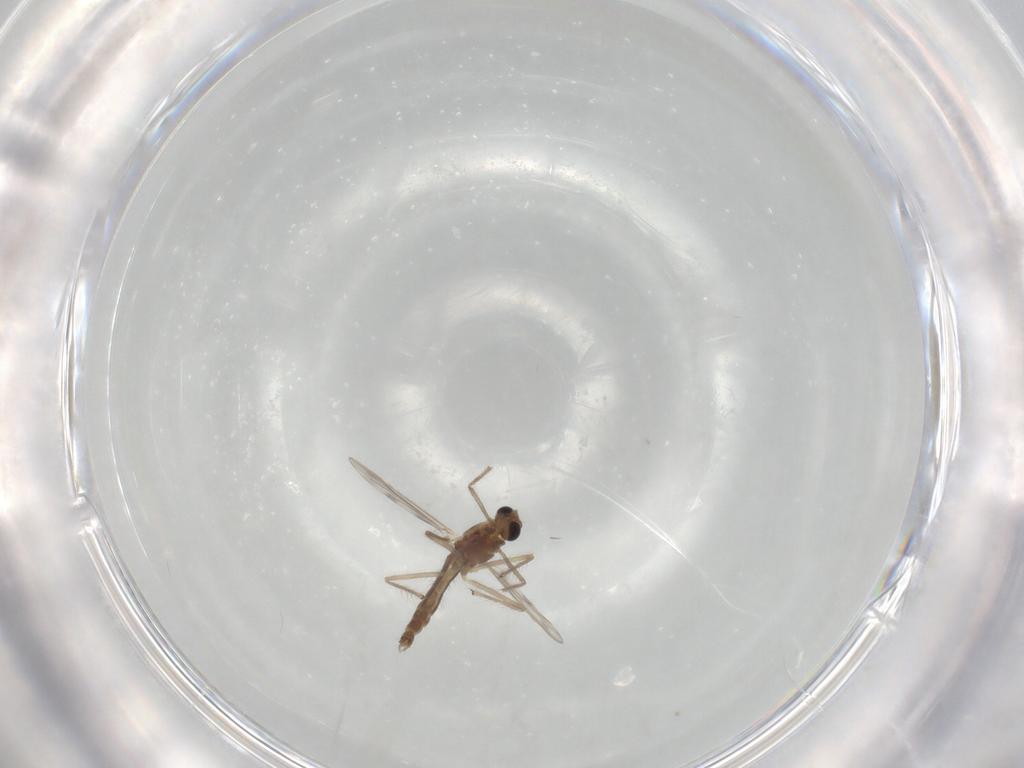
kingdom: Animalia
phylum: Arthropoda
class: Insecta
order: Diptera
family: Chironomidae
